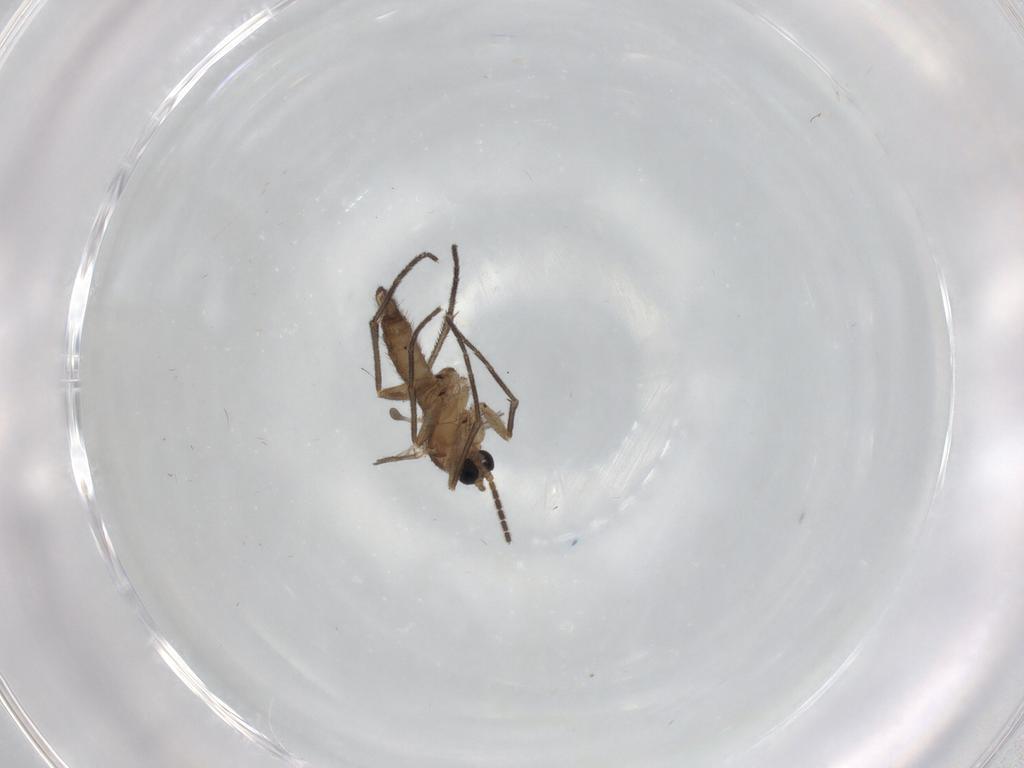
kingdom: Animalia
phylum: Arthropoda
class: Insecta
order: Diptera
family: Sciaridae
